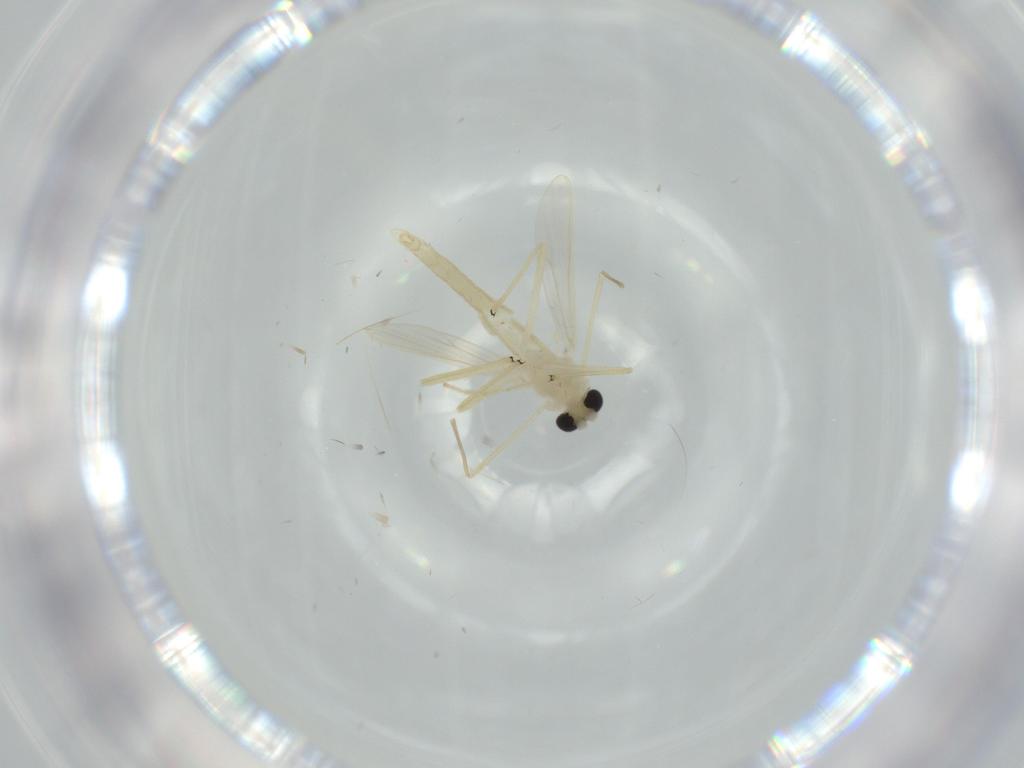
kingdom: Animalia
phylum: Arthropoda
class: Insecta
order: Diptera
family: Chironomidae
